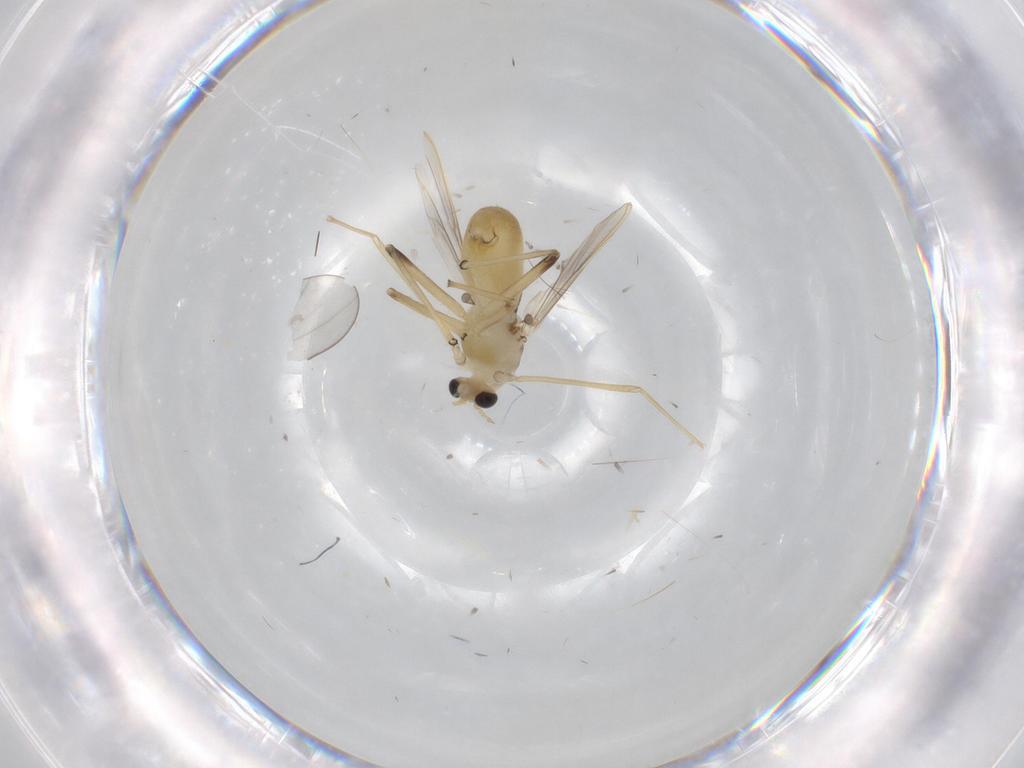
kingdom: Animalia
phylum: Arthropoda
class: Insecta
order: Diptera
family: Chironomidae
